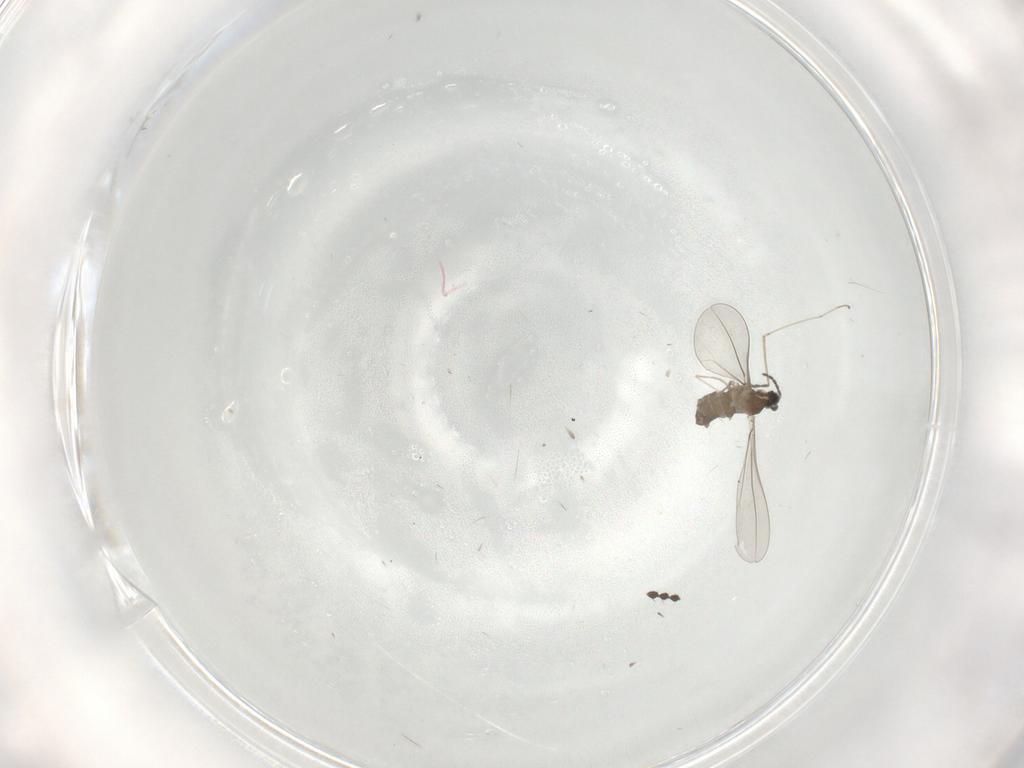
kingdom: Animalia
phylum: Arthropoda
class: Insecta
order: Diptera
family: Cecidomyiidae
